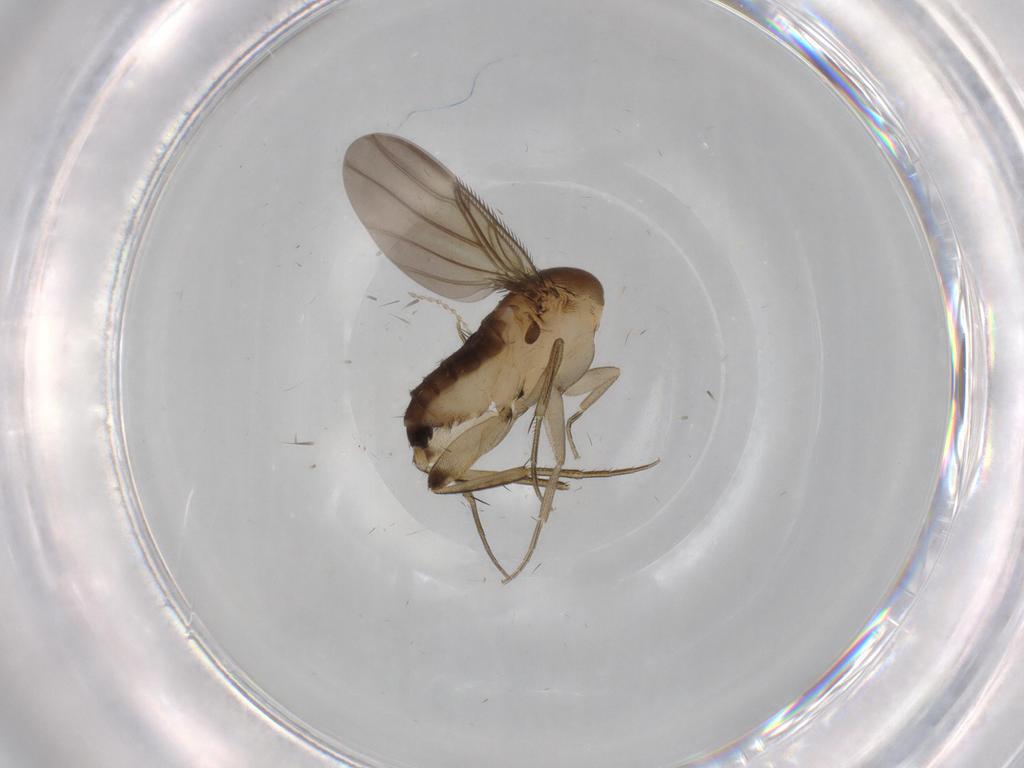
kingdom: Animalia
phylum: Arthropoda
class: Insecta
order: Diptera
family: Phoridae
